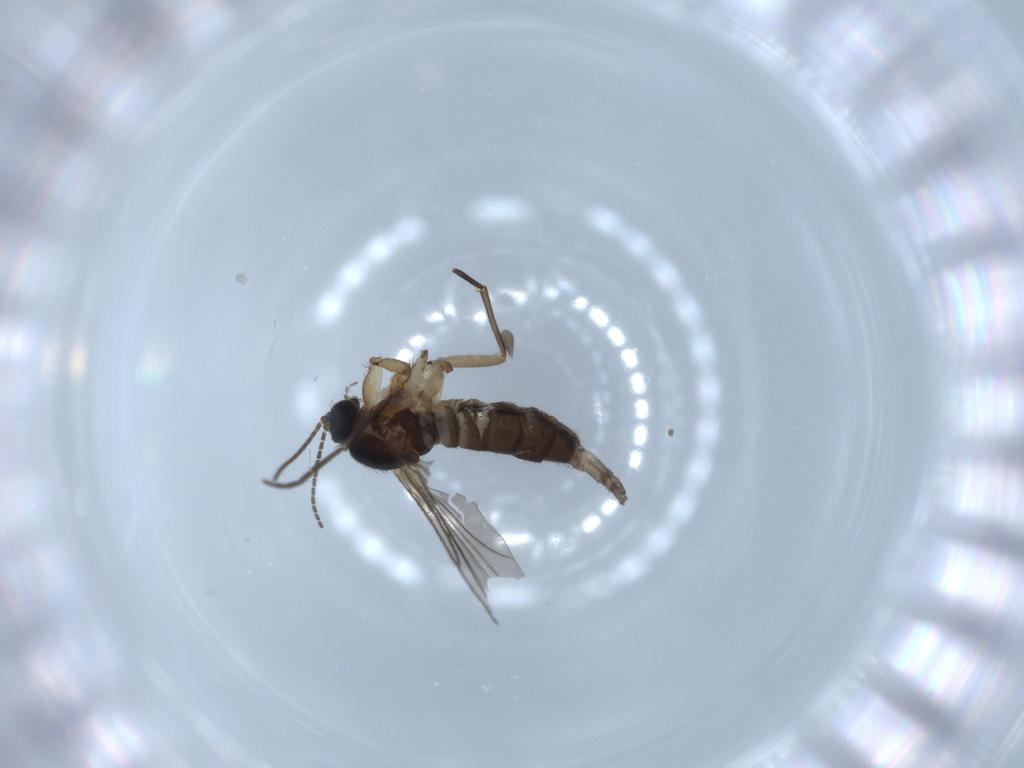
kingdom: Animalia
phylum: Arthropoda
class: Insecta
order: Diptera
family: Sciaridae
